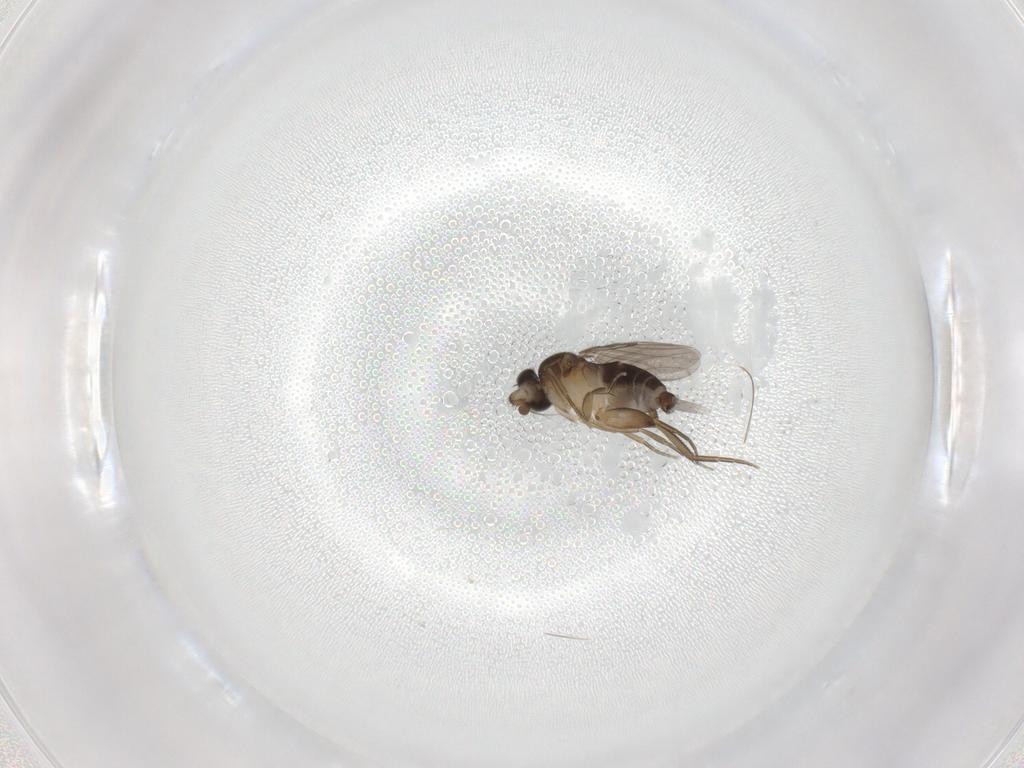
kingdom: Animalia
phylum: Arthropoda
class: Insecta
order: Diptera
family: Phoridae
